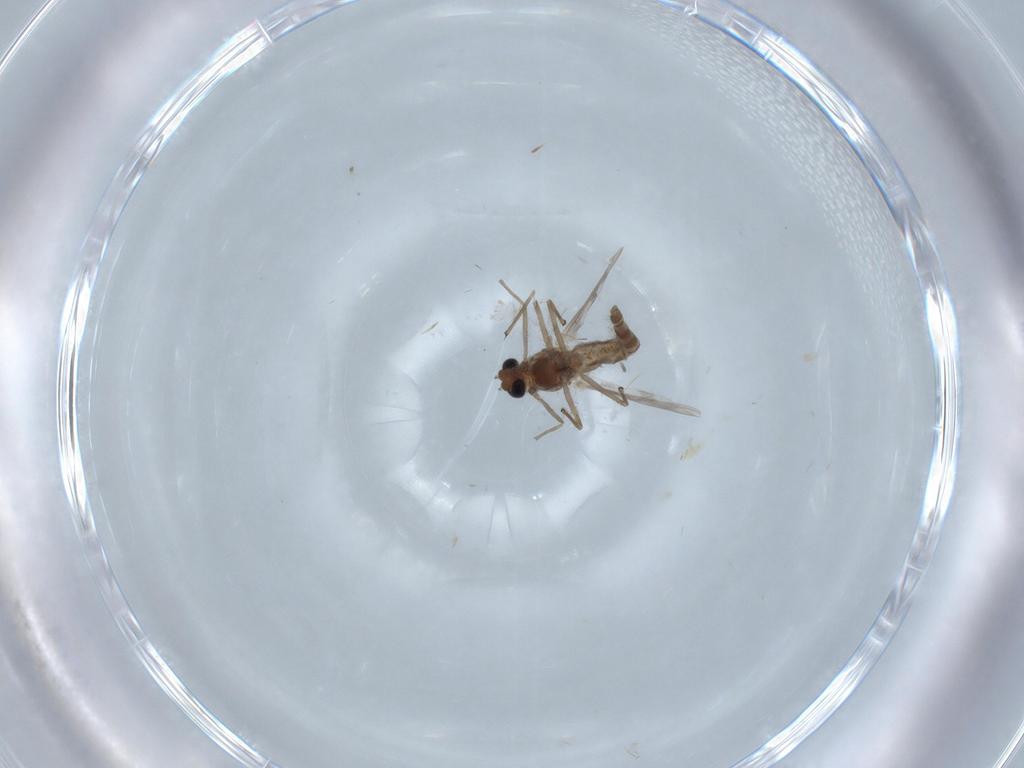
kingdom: Animalia
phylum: Arthropoda
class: Insecta
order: Diptera
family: Chironomidae
